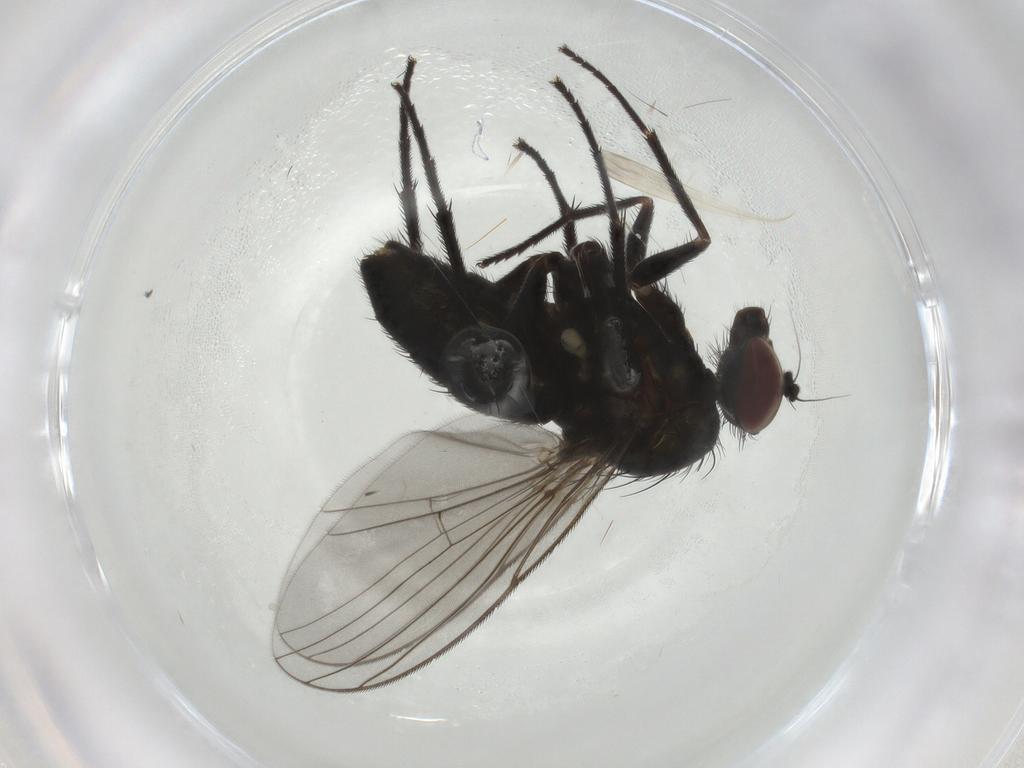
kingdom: Animalia
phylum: Arthropoda
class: Insecta
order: Diptera
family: Dolichopodidae
